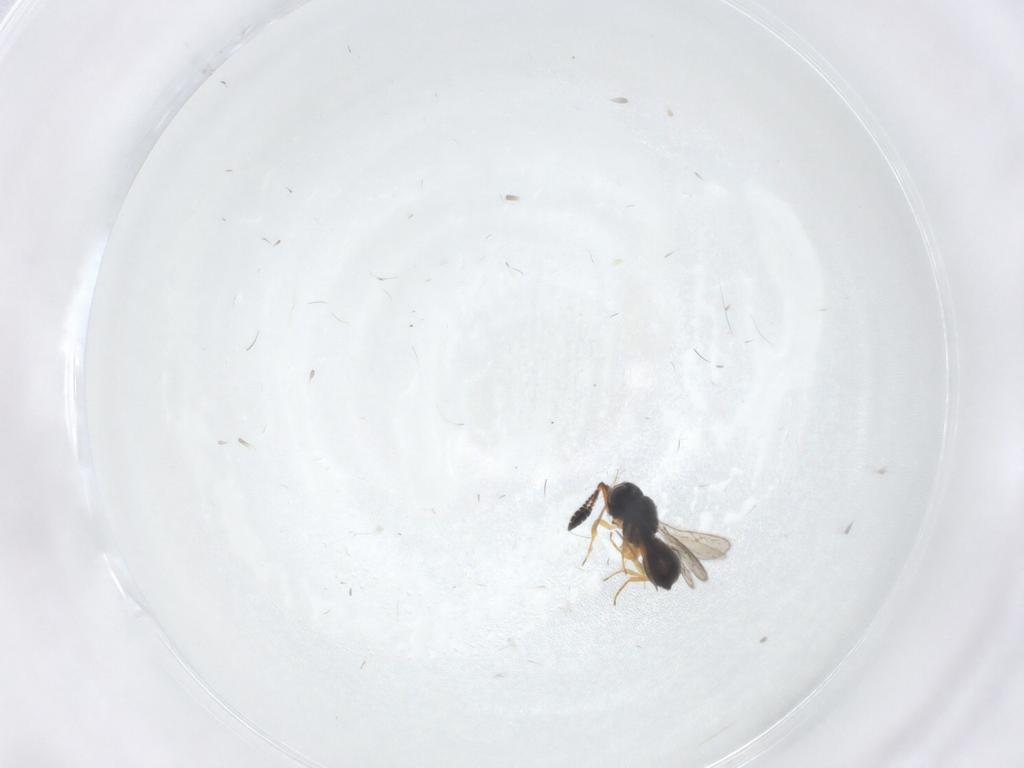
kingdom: Animalia
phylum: Arthropoda
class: Insecta
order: Hymenoptera
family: Scelionidae
